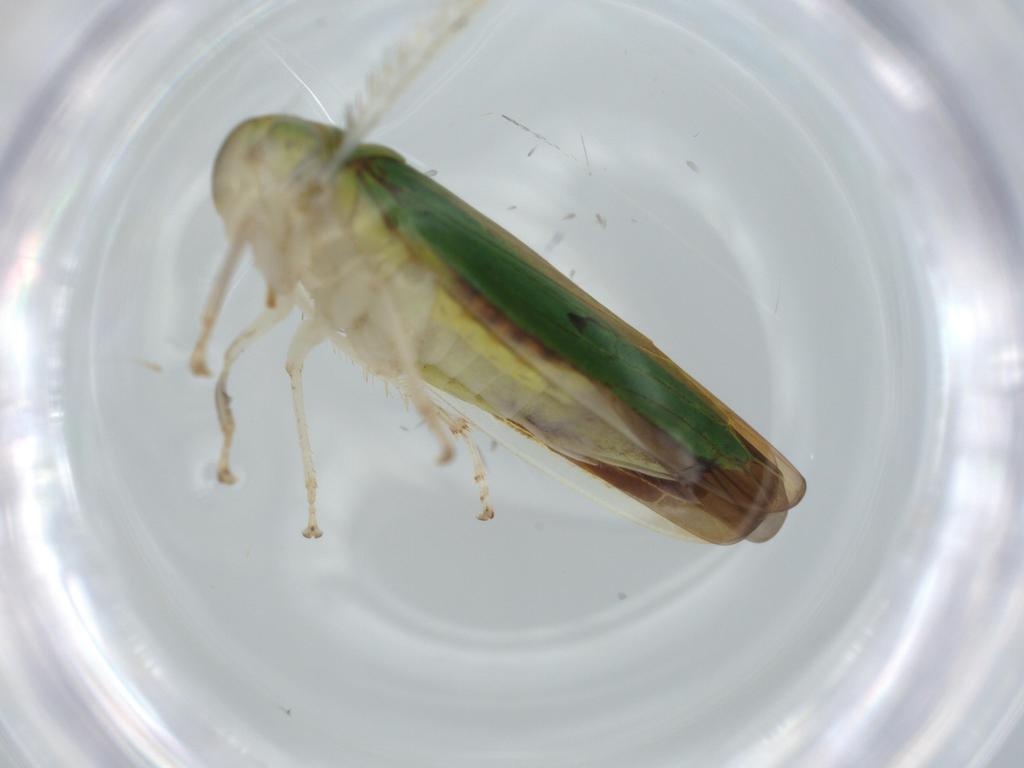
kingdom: Animalia
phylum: Arthropoda
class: Insecta
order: Hemiptera
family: Cicadellidae
